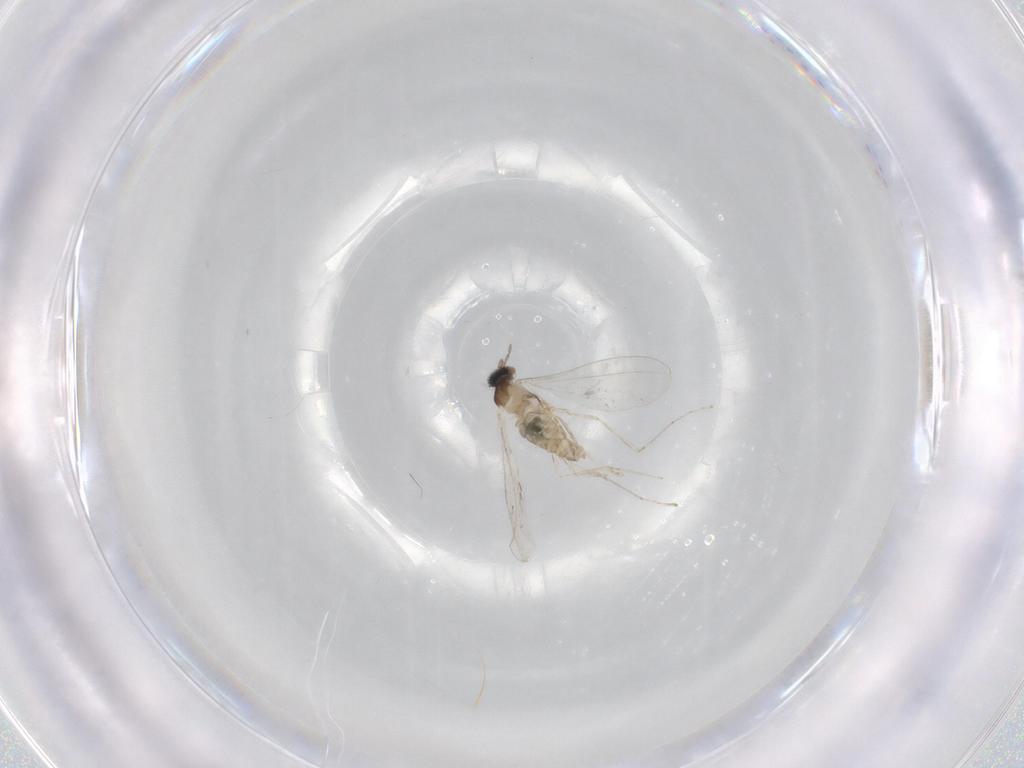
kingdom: Animalia
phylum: Arthropoda
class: Insecta
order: Diptera
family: Cecidomyiidae
